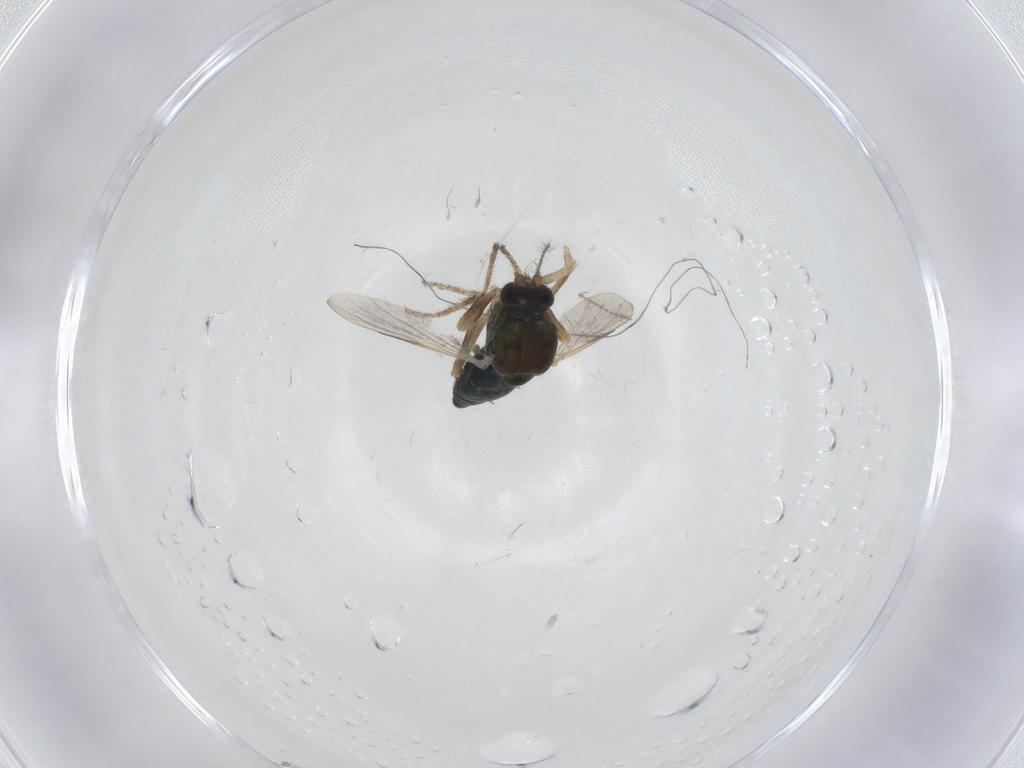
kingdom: Animalia
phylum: Arthropoda
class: Insecta
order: Diptera
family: Ceratopogonidae
